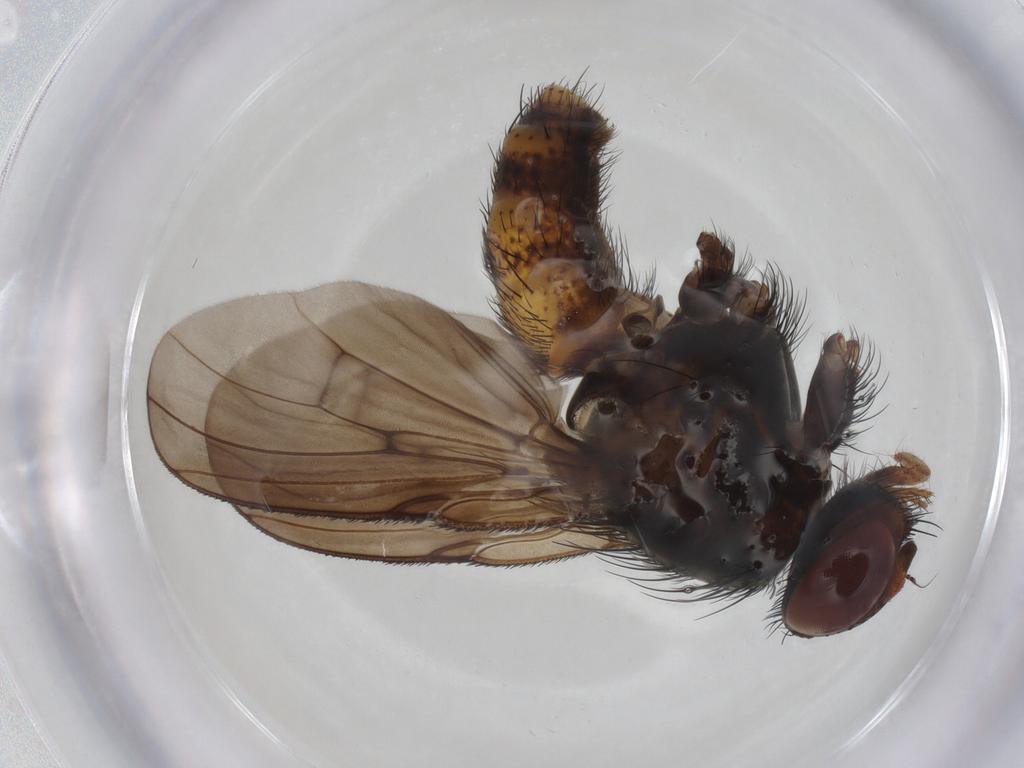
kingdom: Animalia
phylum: Arthropoda
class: Insecta
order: Diptera
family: Muscidae
